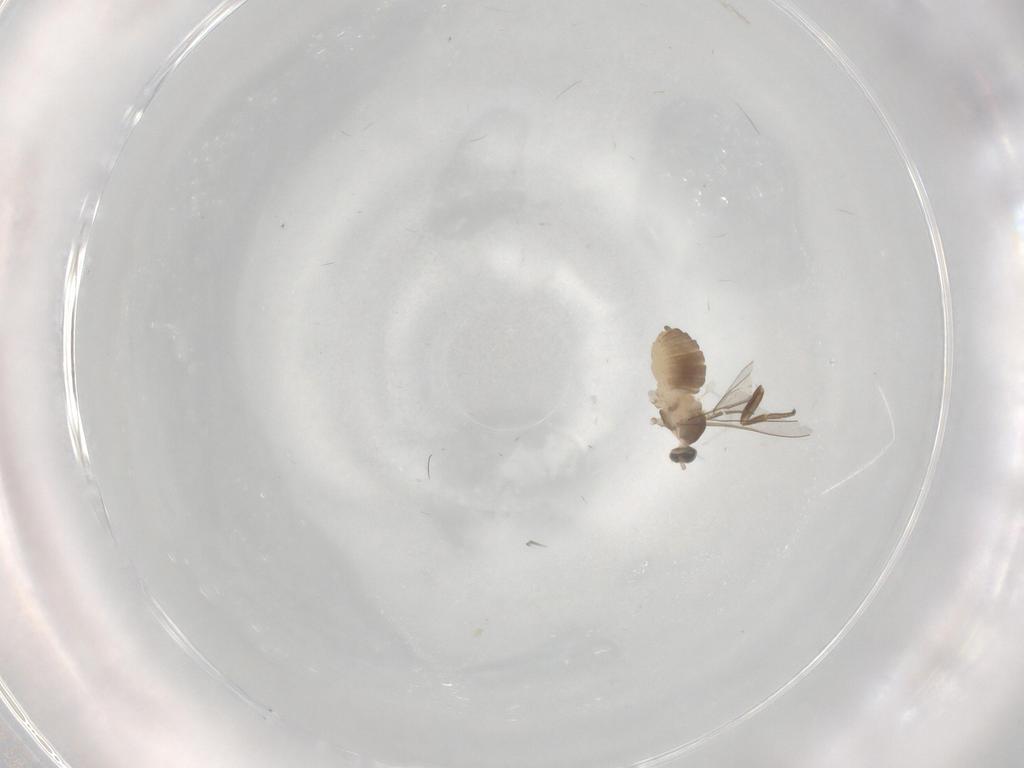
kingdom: Animalia
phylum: Arthropoda
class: Insecta
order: Diptera
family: Cecidomyiidae
